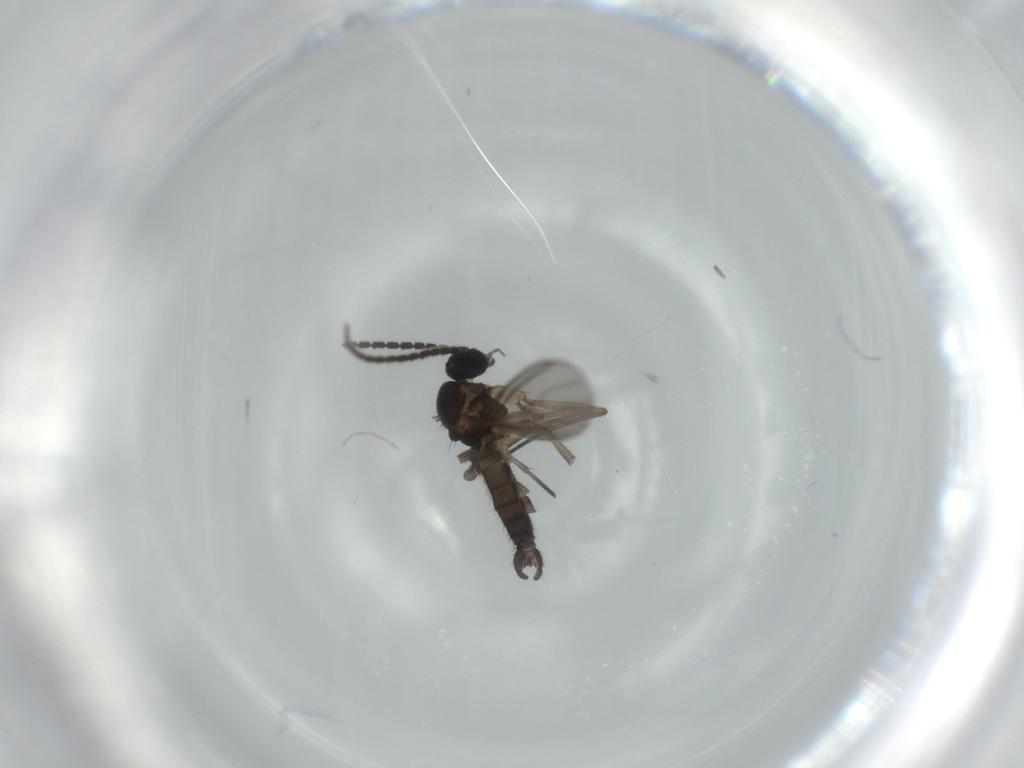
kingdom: Animalia
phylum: Arthropoda
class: Insecta
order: Diptera
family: Sciaridae
